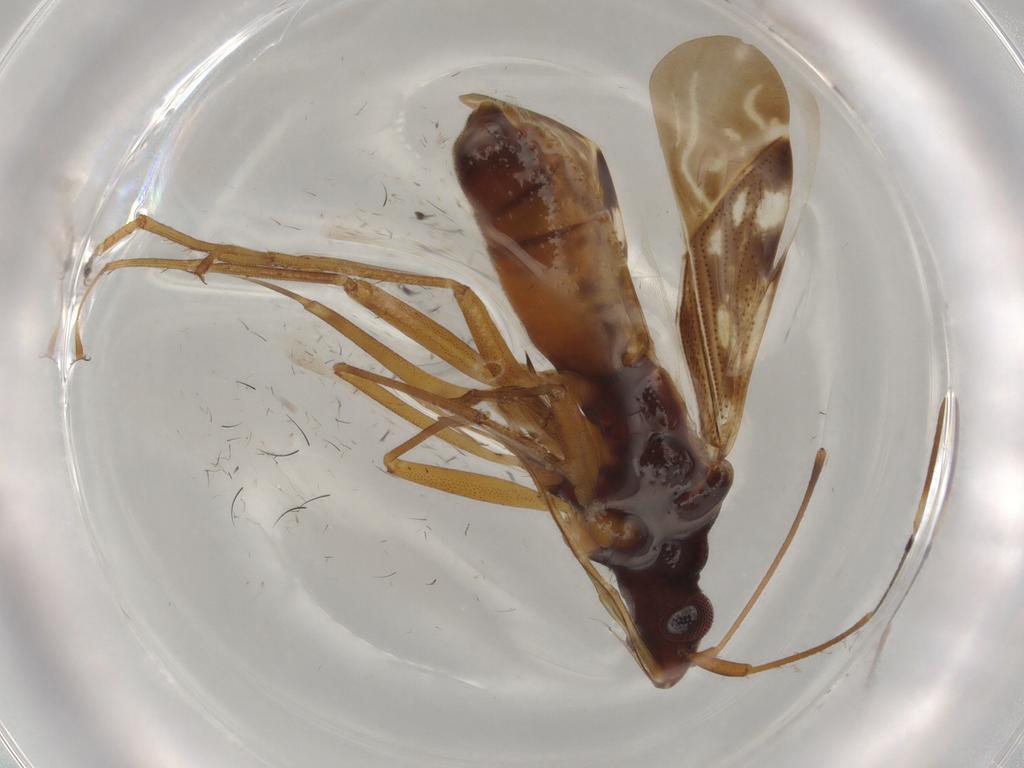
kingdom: Animalia
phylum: Arthropoda
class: Insecta
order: Hemiptera
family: Rhyparochromidae
